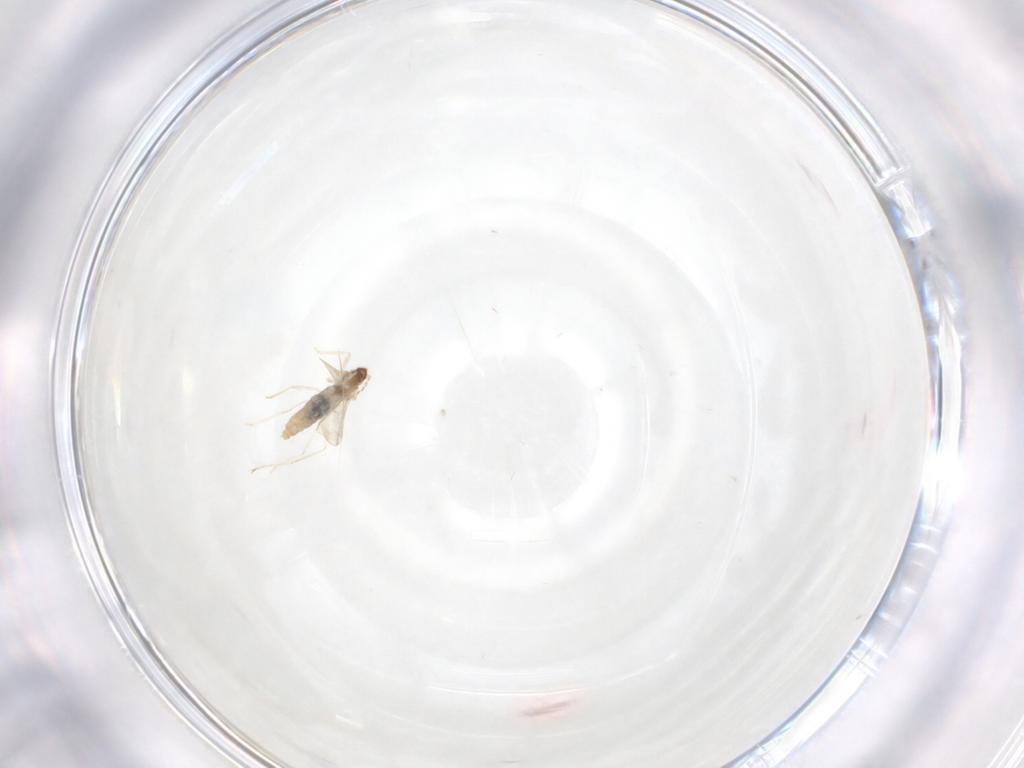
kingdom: Animalia
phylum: Arthropoda
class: Insecta
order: Diptera
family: Cecidomyiidae
